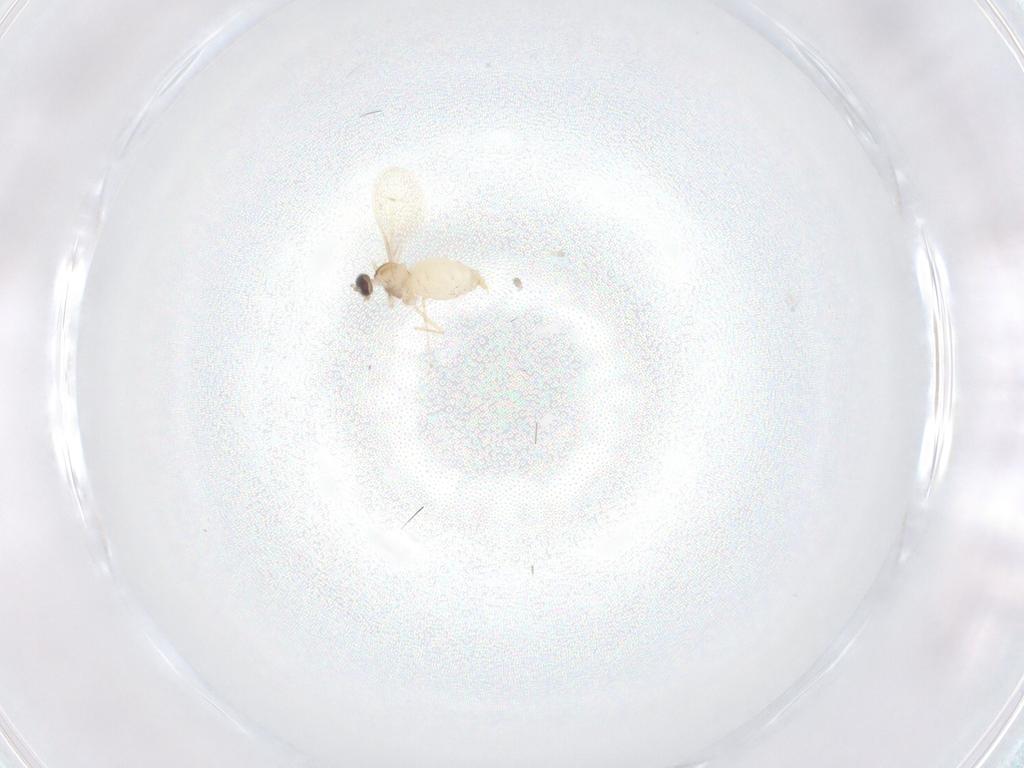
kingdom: Animalia
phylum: Arthropoda
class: Insecta
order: Diptera
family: Cecidomyiidae
